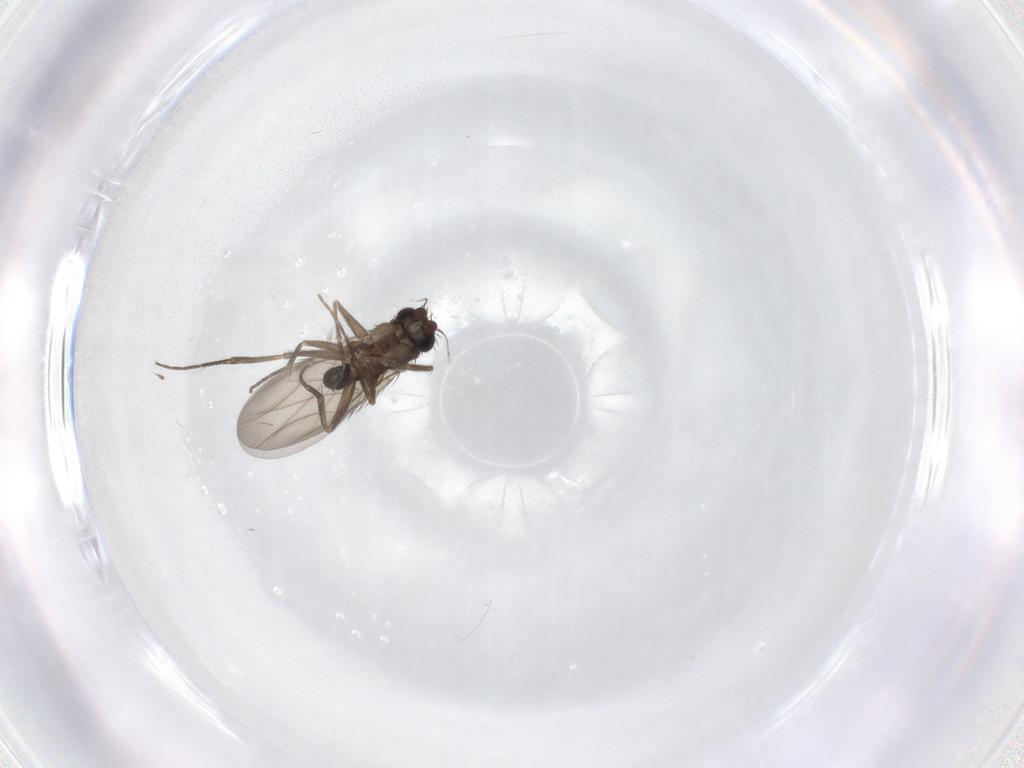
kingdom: Animalia
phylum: Arthropoda
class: Insecta
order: Diptera
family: Phoridae
